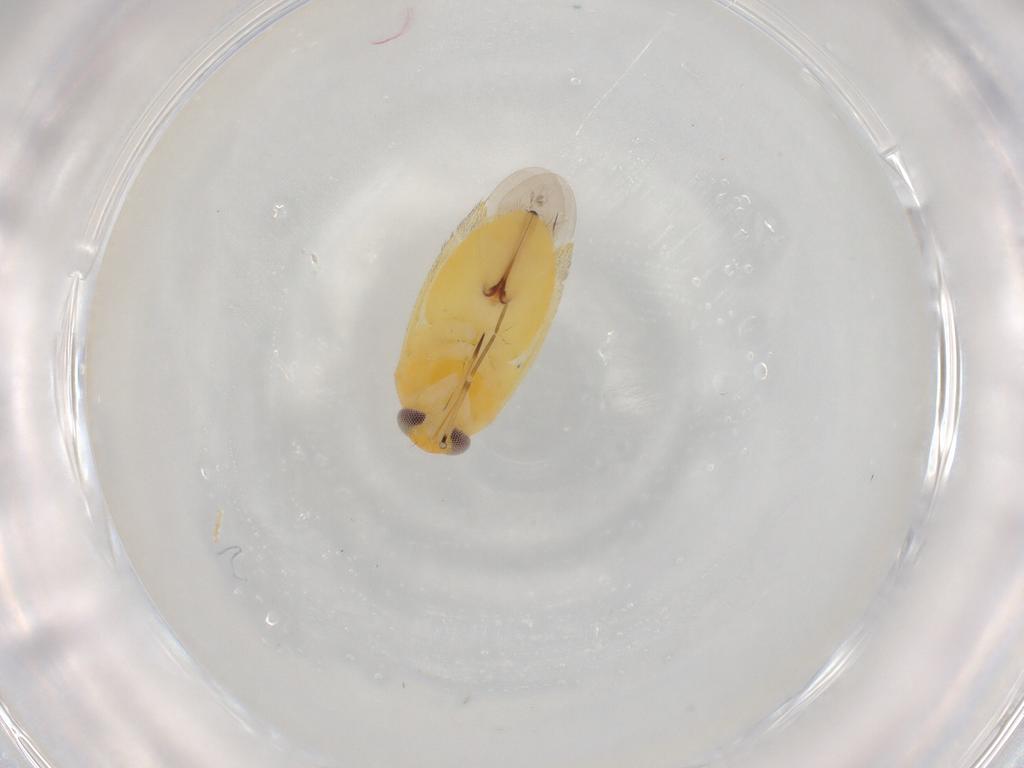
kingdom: Animalia
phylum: Arthropoda
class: Insecta
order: Hemiptera
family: Miridae
